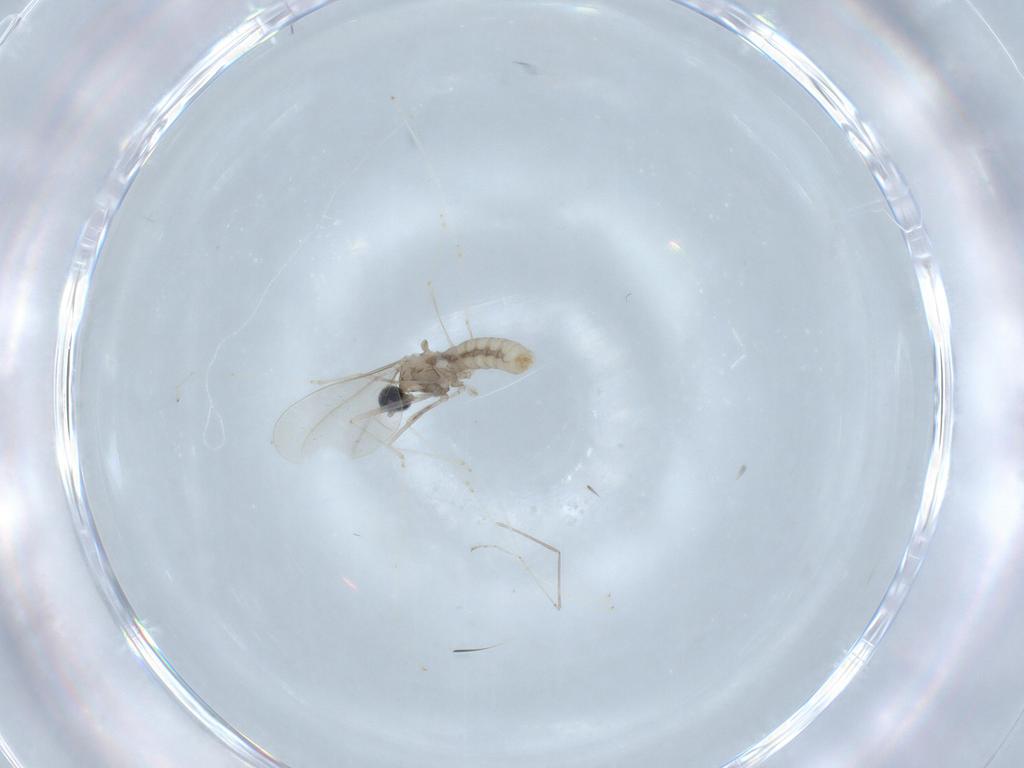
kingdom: Animalia
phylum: Arthropoda
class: Insecta
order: Diptera
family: Cecidomyiidae
